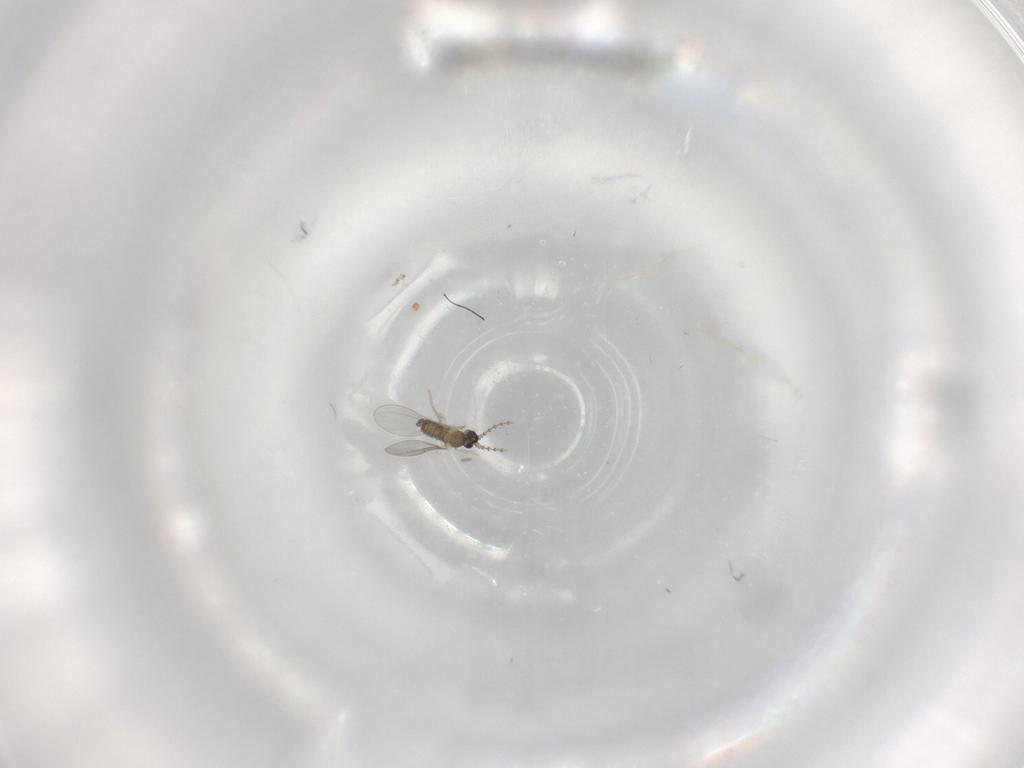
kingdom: Animalia
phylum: Arthropoda
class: Insecta
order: Diptera
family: Cecidomyiidae
